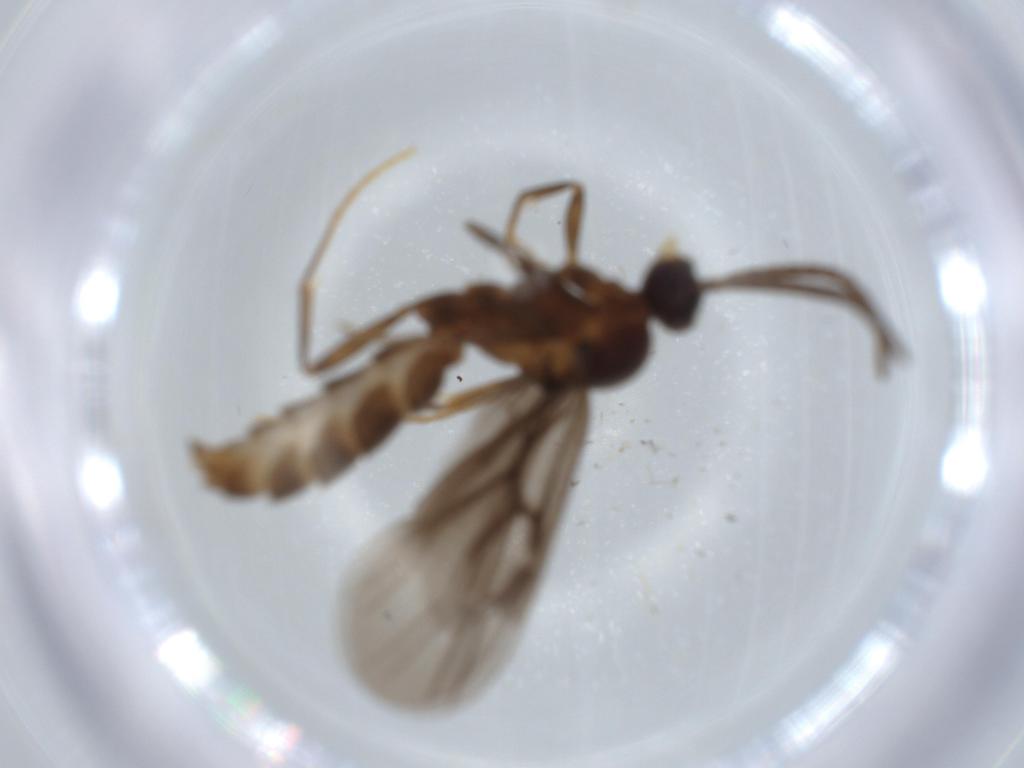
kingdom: Animalia
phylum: Arthropoda
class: Insecta
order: Hymenoptera
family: Formicidae
